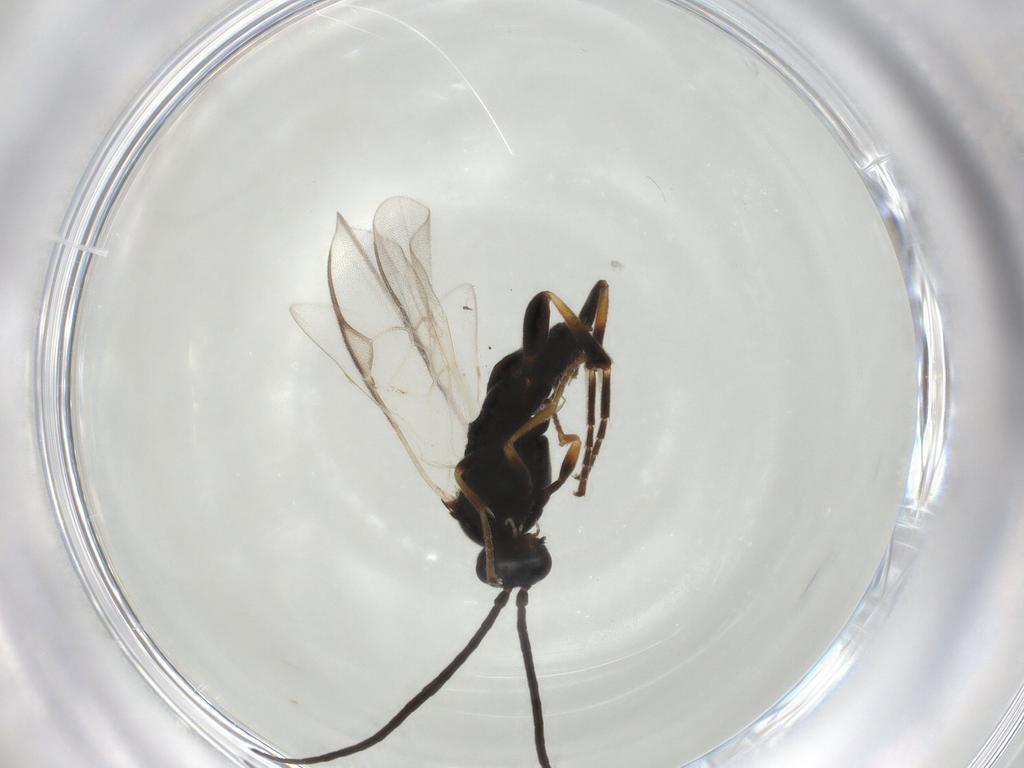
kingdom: Animalia
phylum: Arthropoda
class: Insecta
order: Hymenoptera
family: Braconidae
